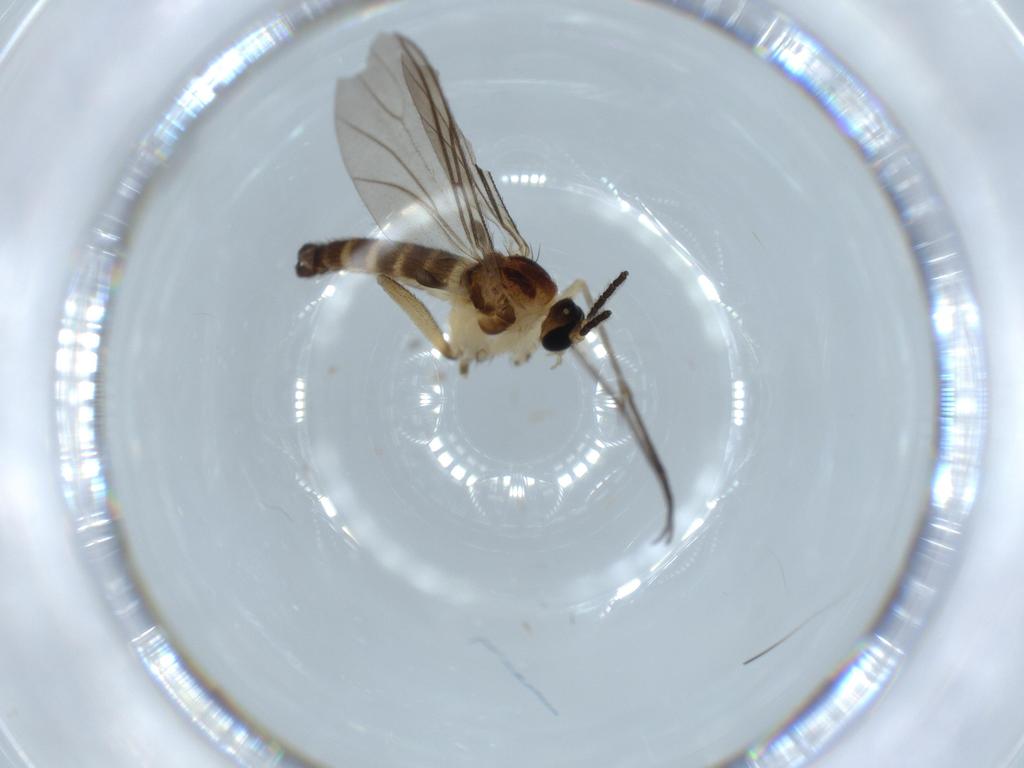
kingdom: Animalia
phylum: Arthropoda
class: Insecta
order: Diptera
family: Sciaridae
